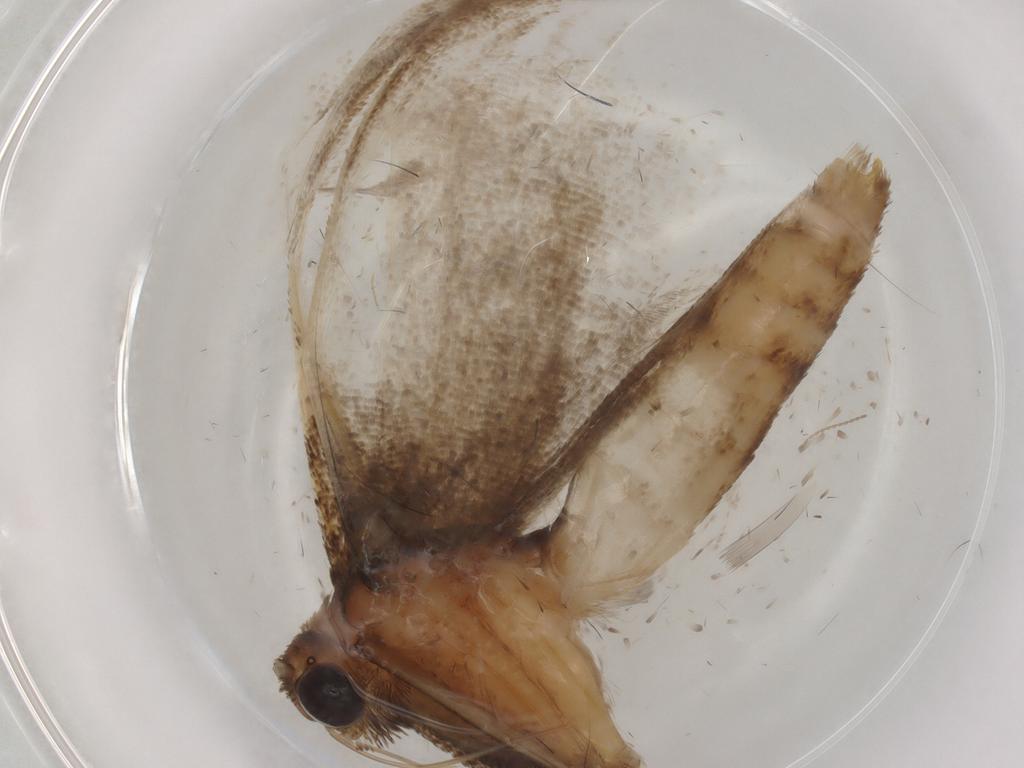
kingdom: Animalia
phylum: Arthropoda
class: Insecta
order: Lepidoptera
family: Erebidae
